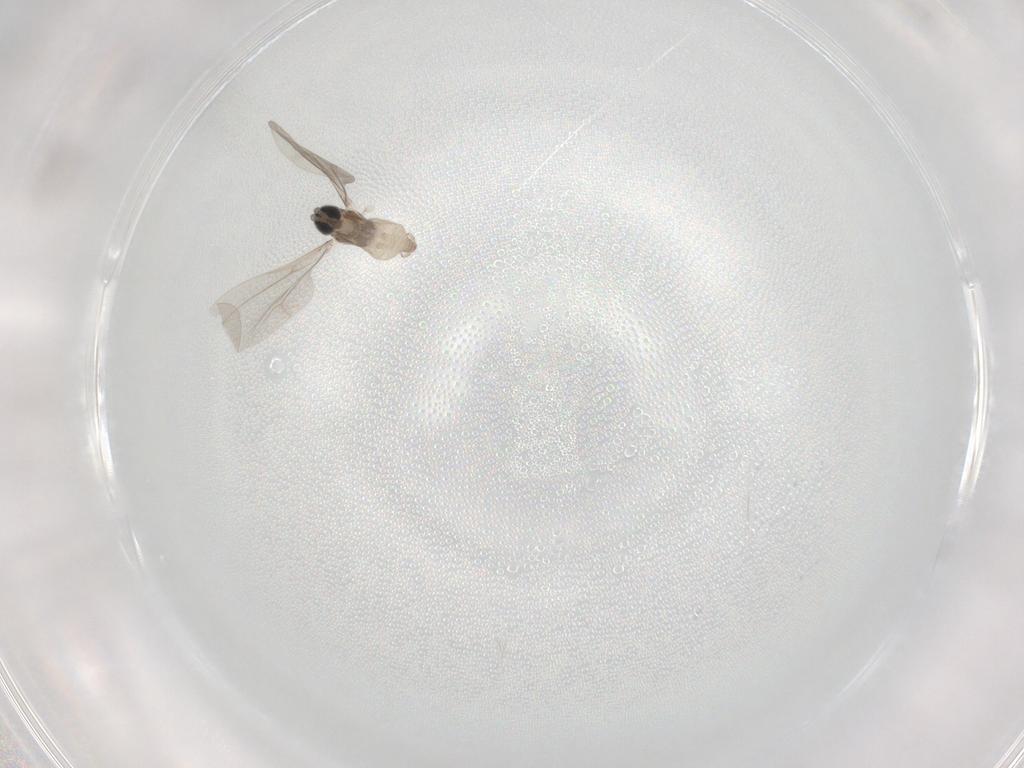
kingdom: Animalia
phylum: Arthropoda
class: Insecta
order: Diptera
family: Cecidomyiidae
